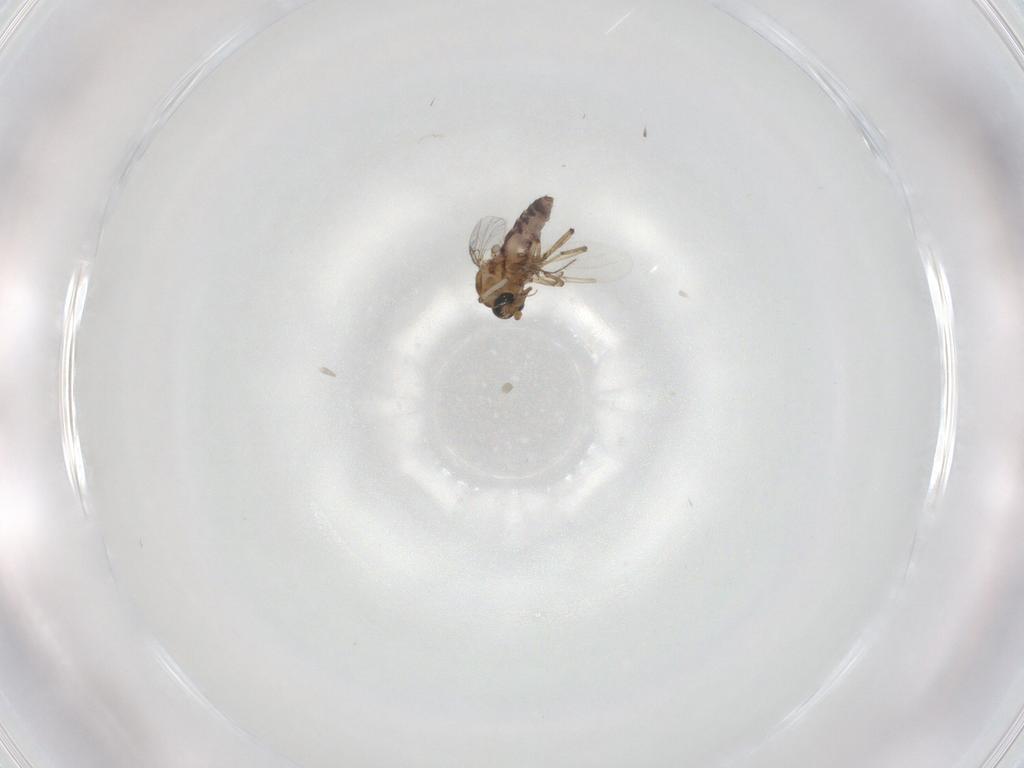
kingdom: Animalia
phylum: Arthropoda
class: Insecta
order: Diptera
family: Ceratopogonidae
